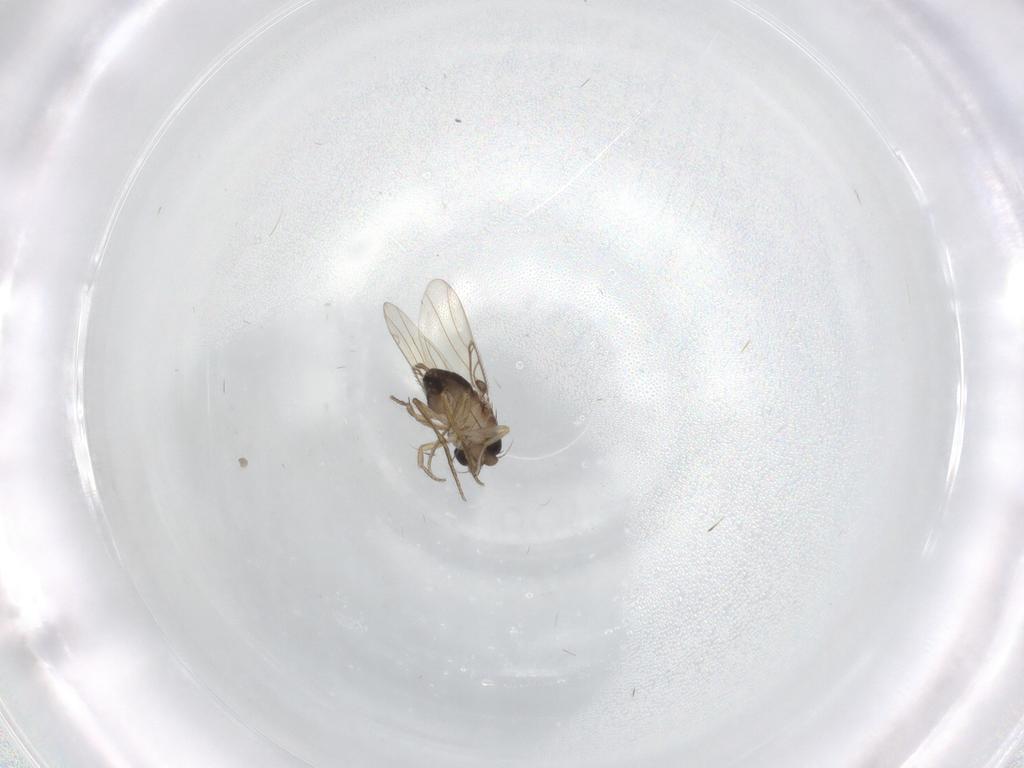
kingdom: Animalia
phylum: Arthropoda
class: Insecta
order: Diptera
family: Phoridae
